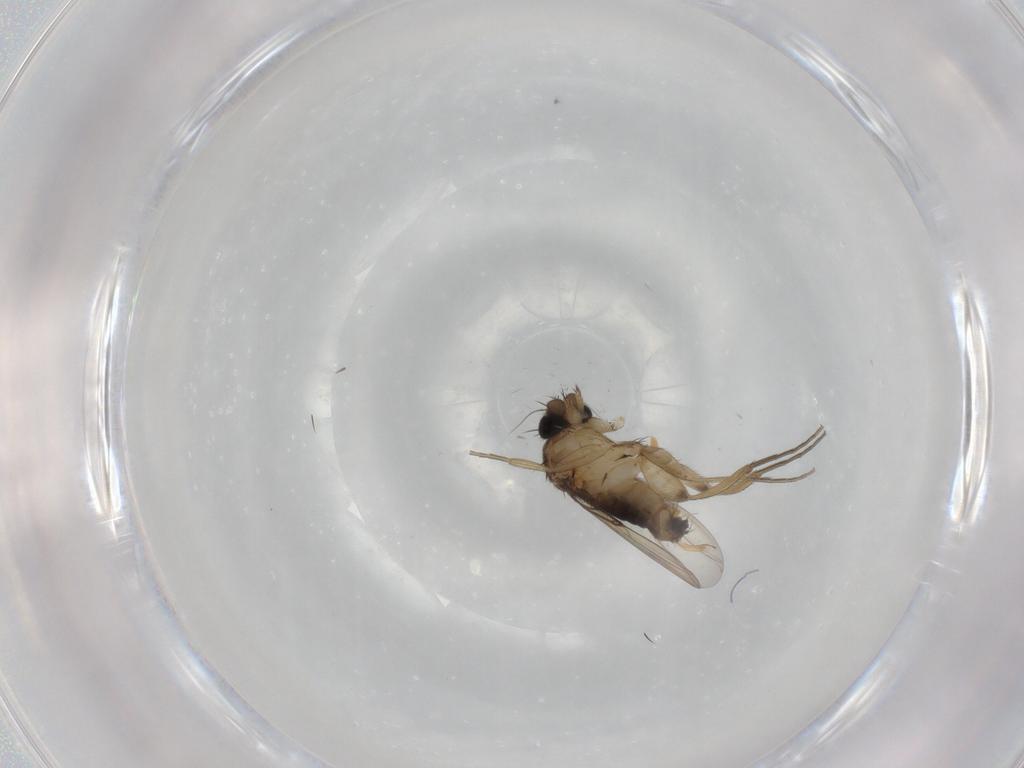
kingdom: Animalia
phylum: Arthropoda
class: Insecta
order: Diptera
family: Phoridae
